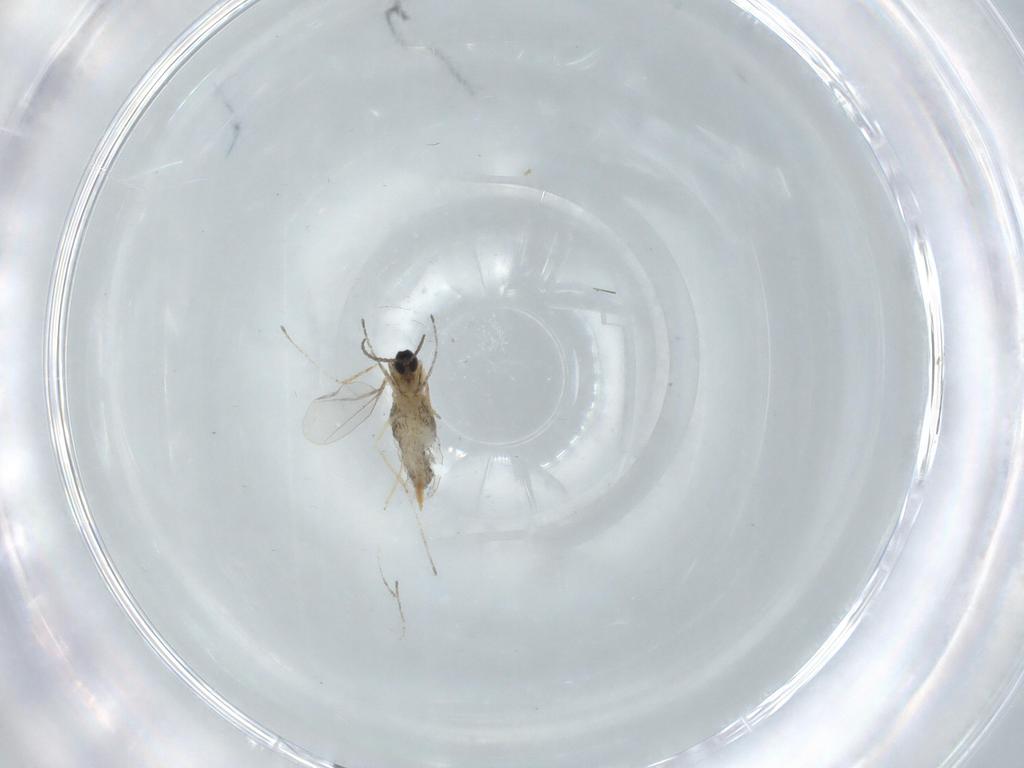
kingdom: Animalia
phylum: Arthropoda
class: Insecta
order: Diptera
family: Cecidomyiidae
